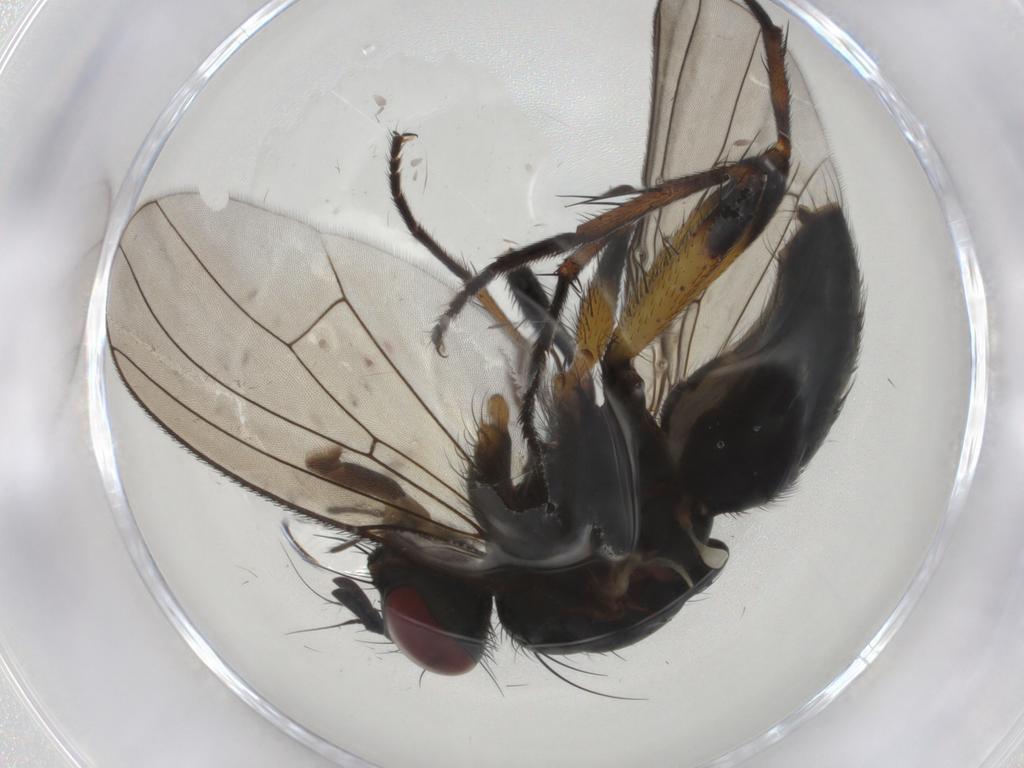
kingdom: Animalia
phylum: Arthropoda
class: Insecta
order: Diptera
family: Muscidae
